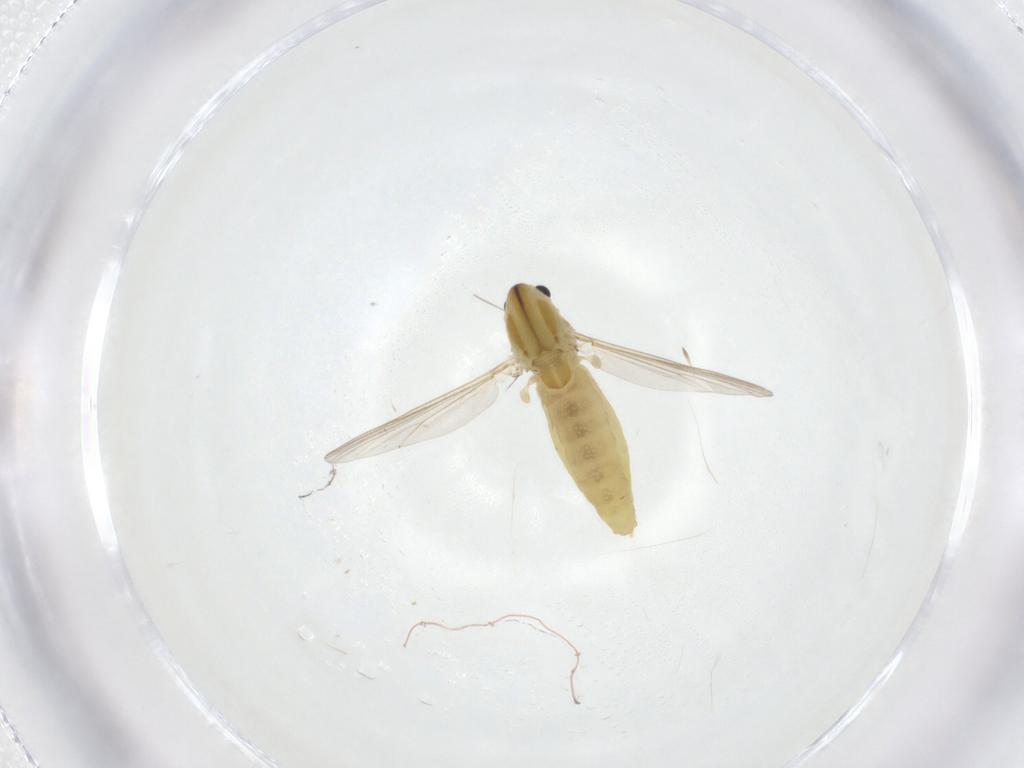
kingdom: Animalia
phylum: Arthropoda
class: Insecta
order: Diptera
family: Chironomidae
